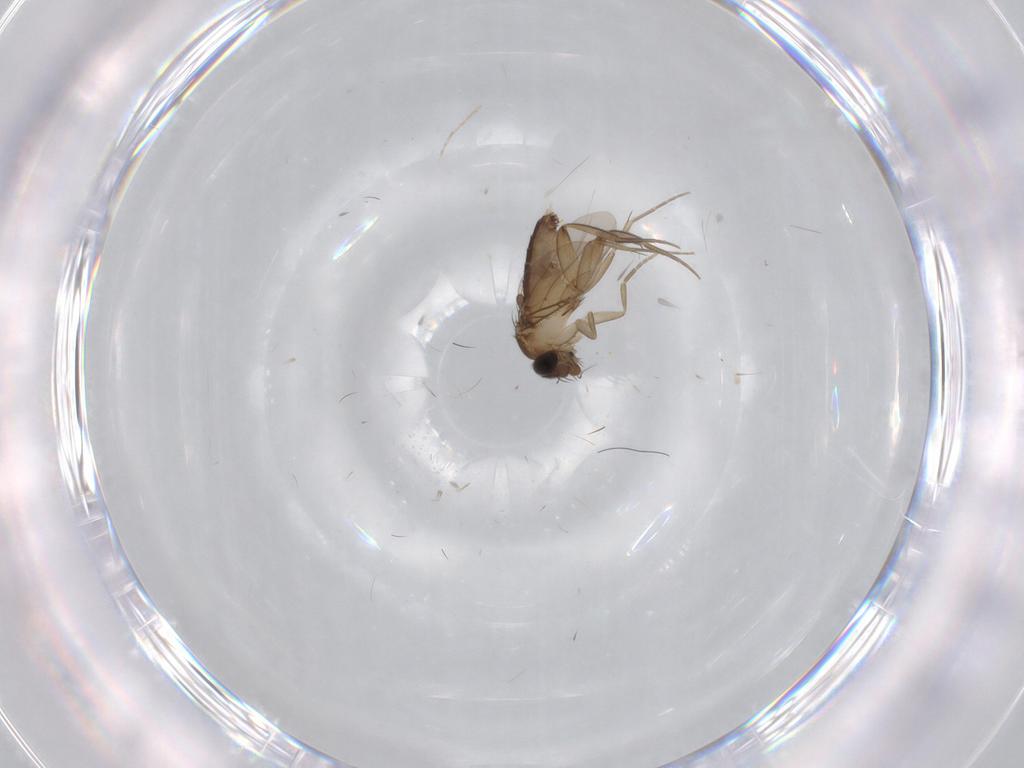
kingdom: Animalia
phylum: Arthropoda
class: Insecta
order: Diptera
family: Phoridae
